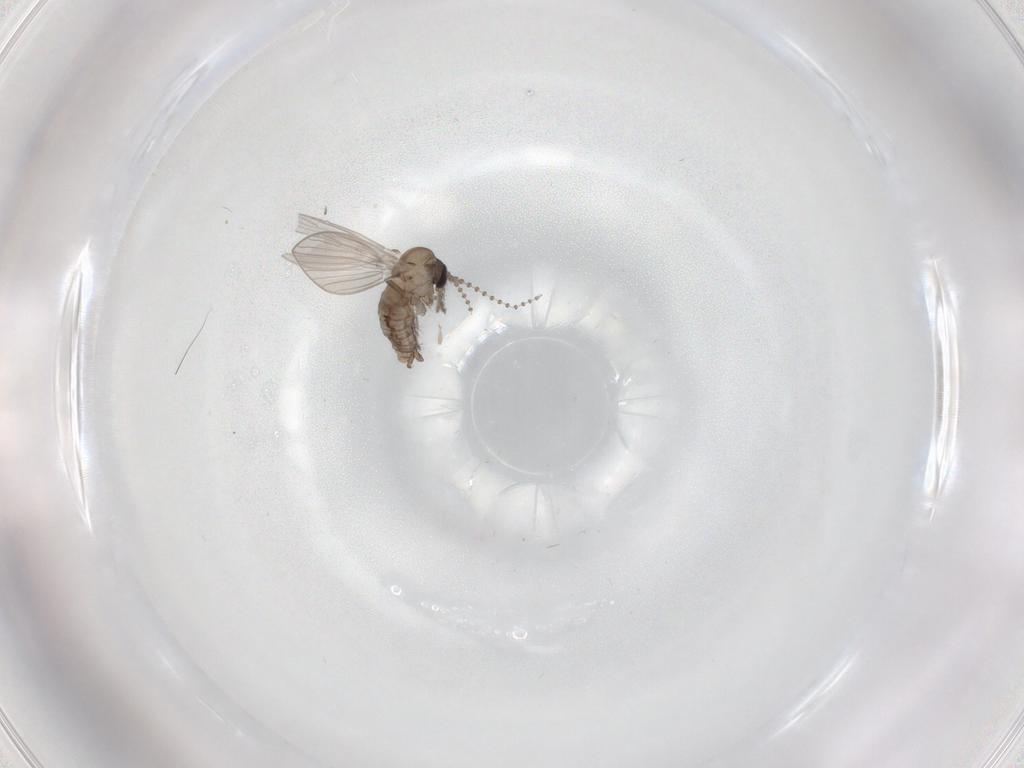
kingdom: Animalia
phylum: Arthropoda
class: Insecta
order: Diptera
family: Psychodidae
